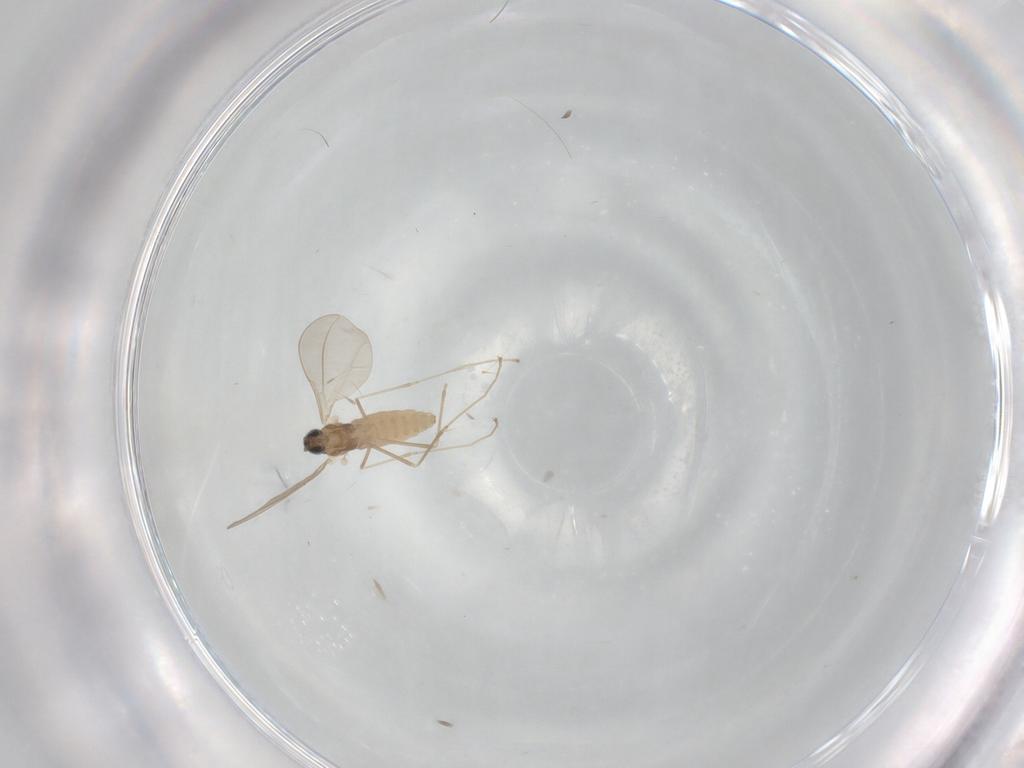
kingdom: Animalia
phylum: Arthropoda
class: Insecta
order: Diptera
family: Cecidomyiidae
